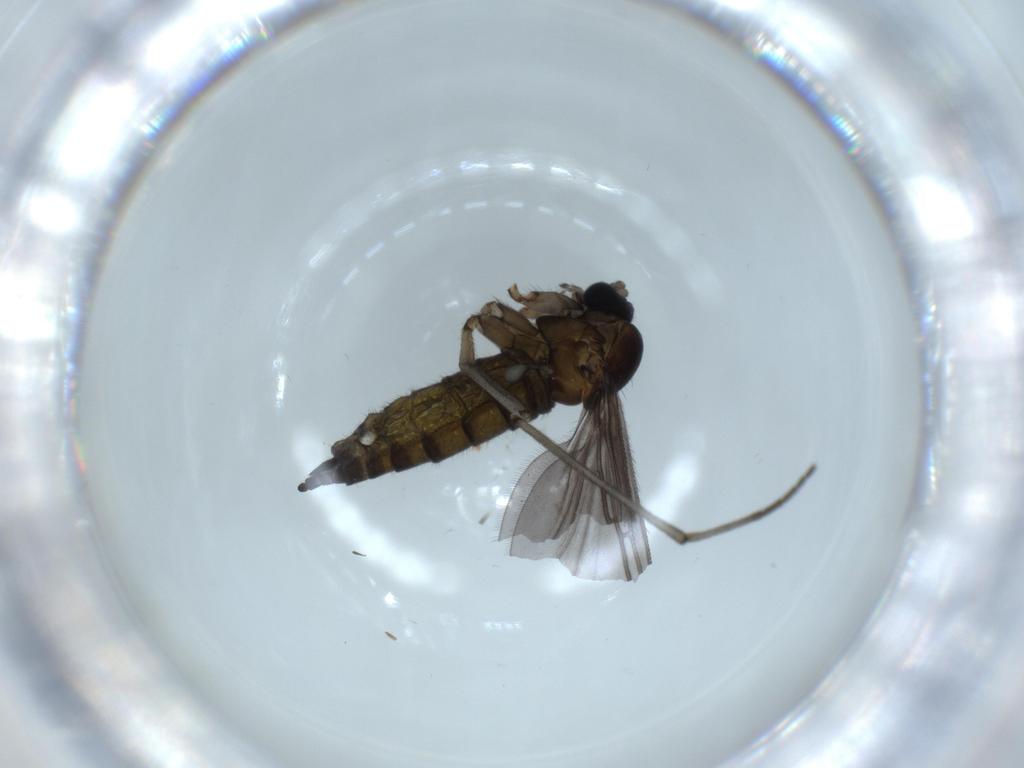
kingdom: Animalia
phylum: Arthropoda
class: Insecta
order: Diptera
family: Sciaridae
